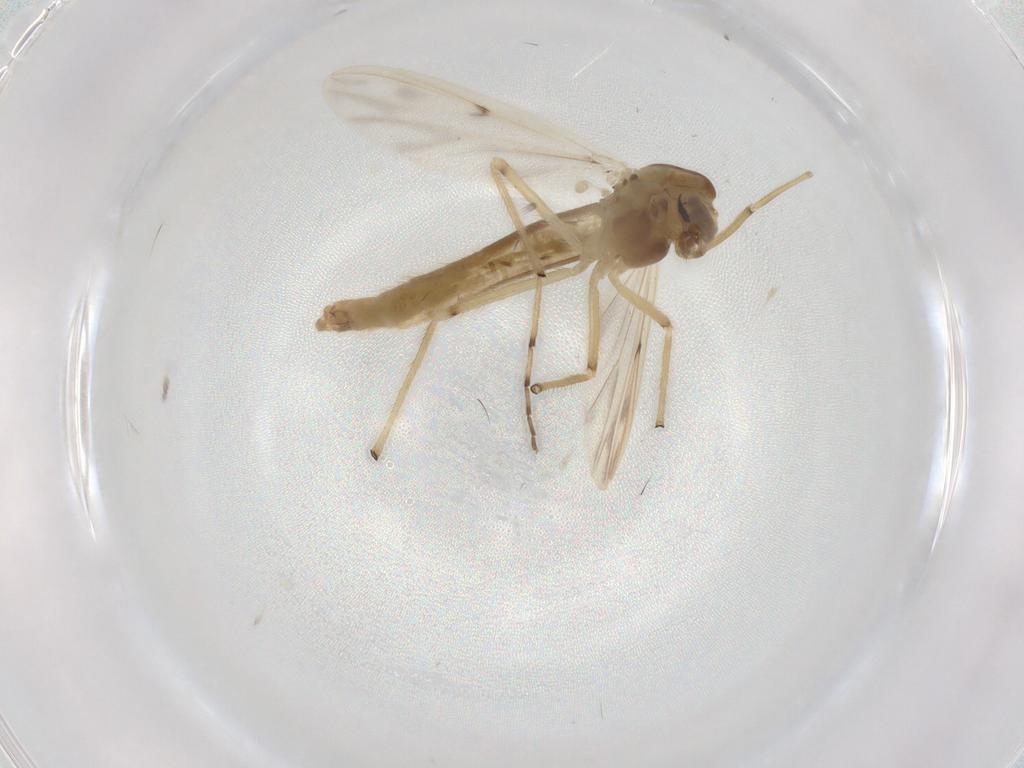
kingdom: Animalia
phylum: Arthropoda
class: Insecta
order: Diptera
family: Chironomidae
